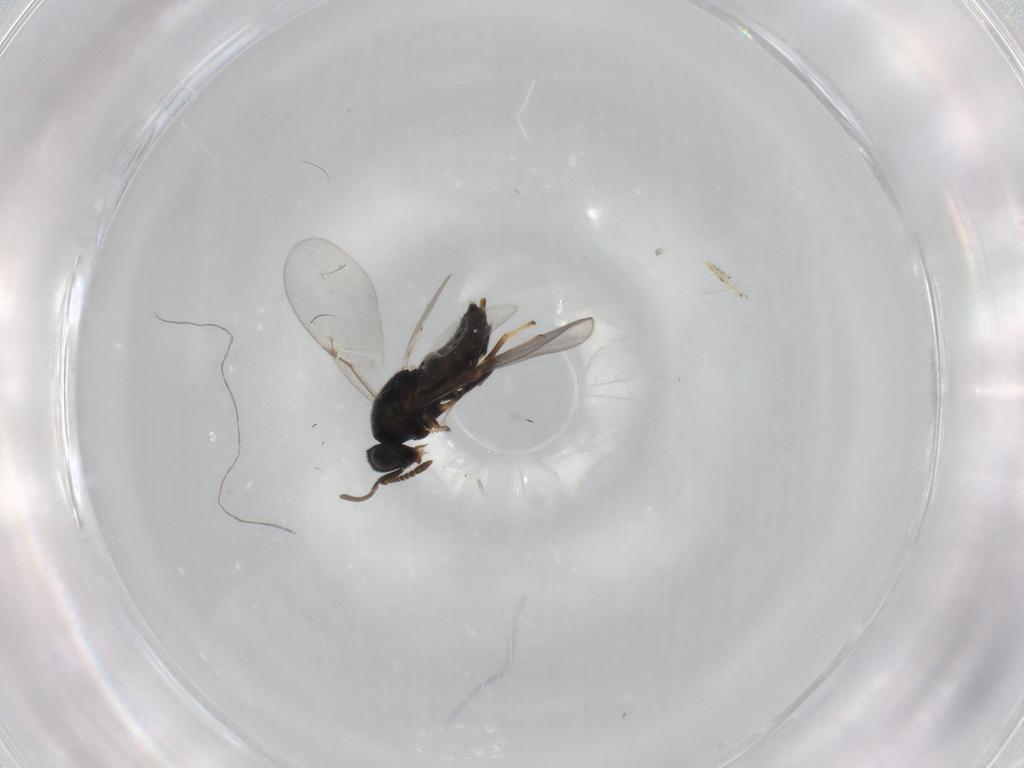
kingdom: Animalia
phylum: Arthropoda
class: Insecta
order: Hymenoptera
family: Encyrtidae
